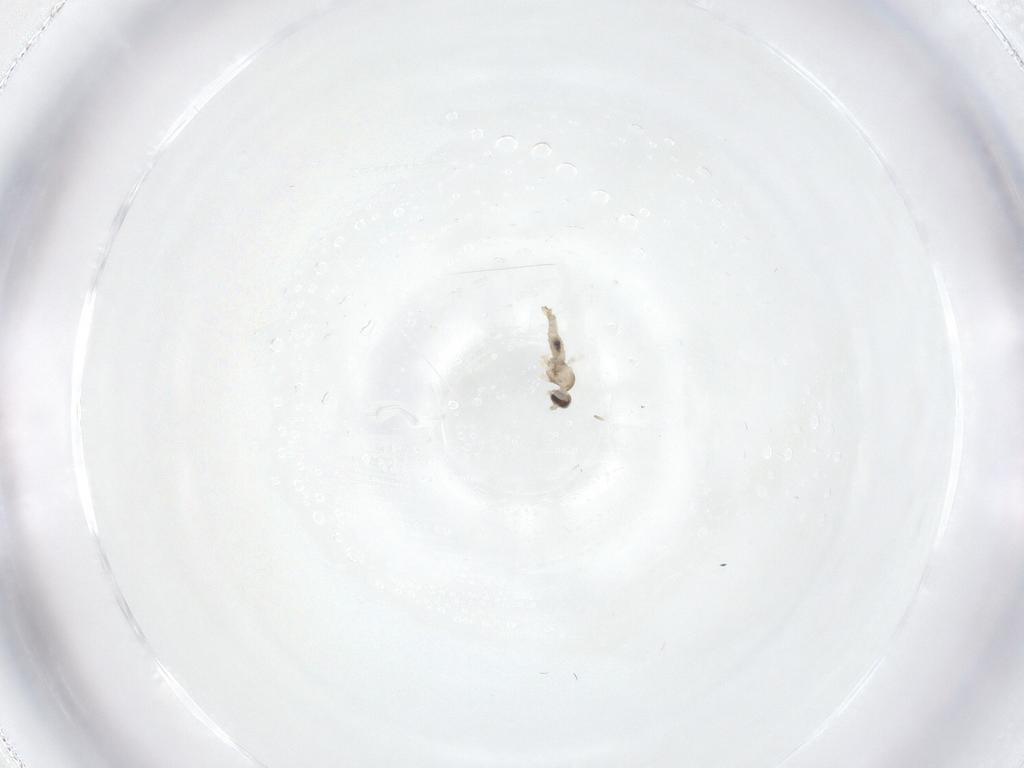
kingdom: Animalia
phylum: Arthropoda
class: Insecta
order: Diptera
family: Cecidomyiidae
